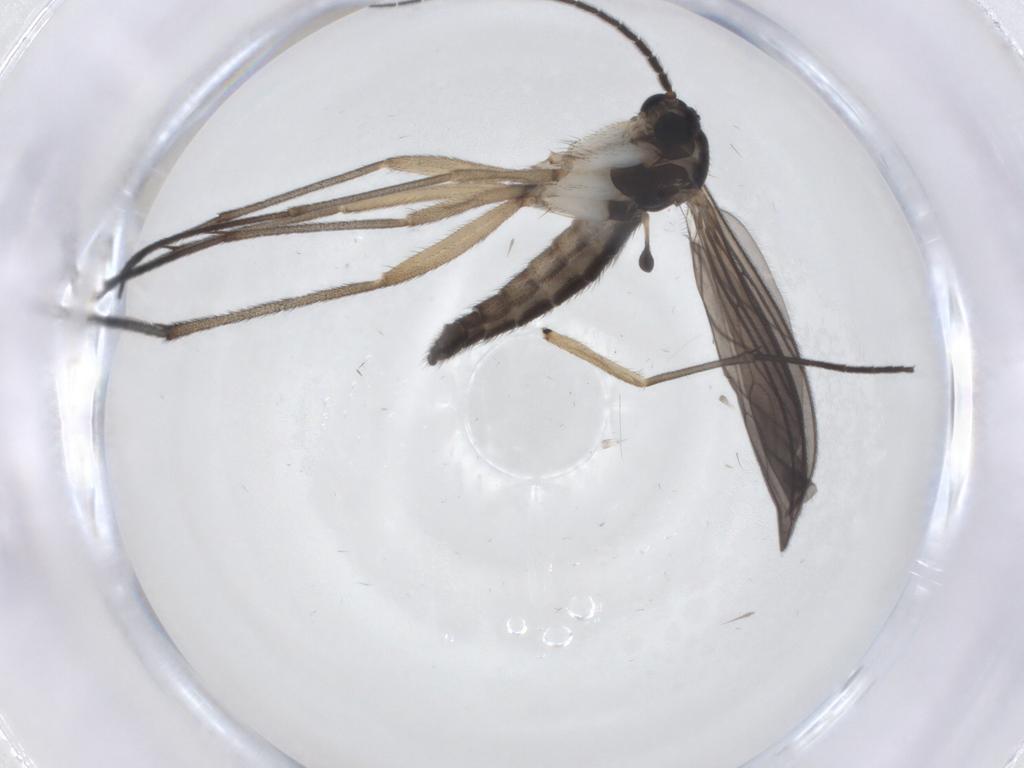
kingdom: Animalia
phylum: Arthropoda
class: Insecta
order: Diptera
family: Sciaridae
